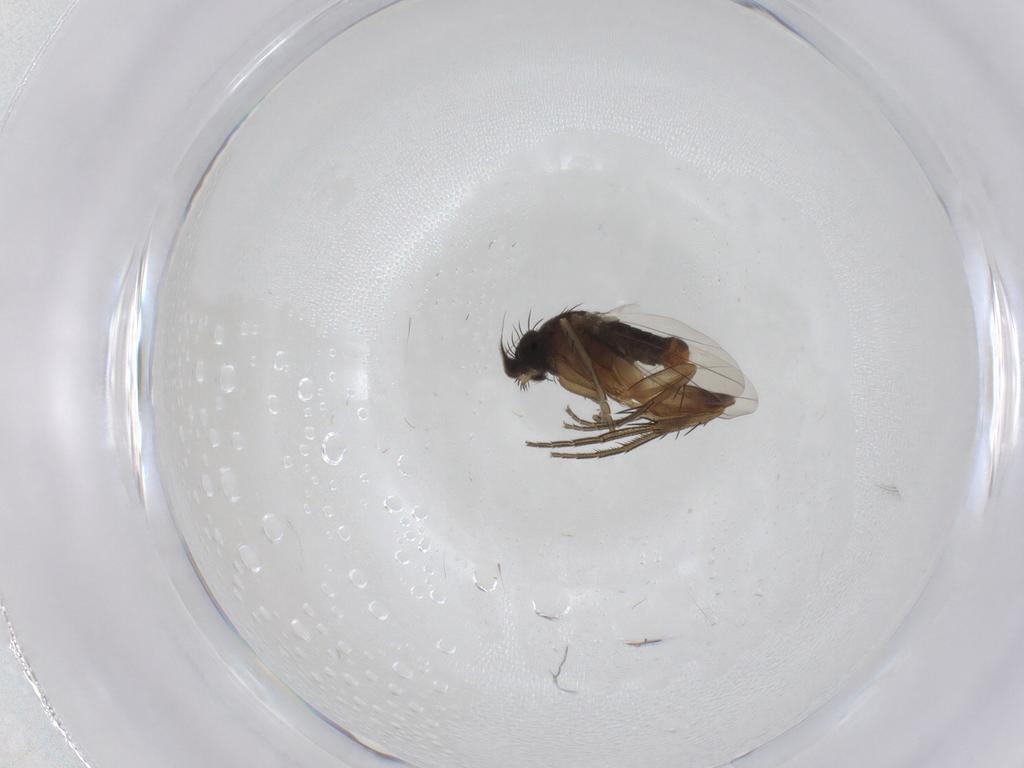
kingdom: Animalia
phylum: Arthropoda
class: Insecta
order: Diptera
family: Phoridae
